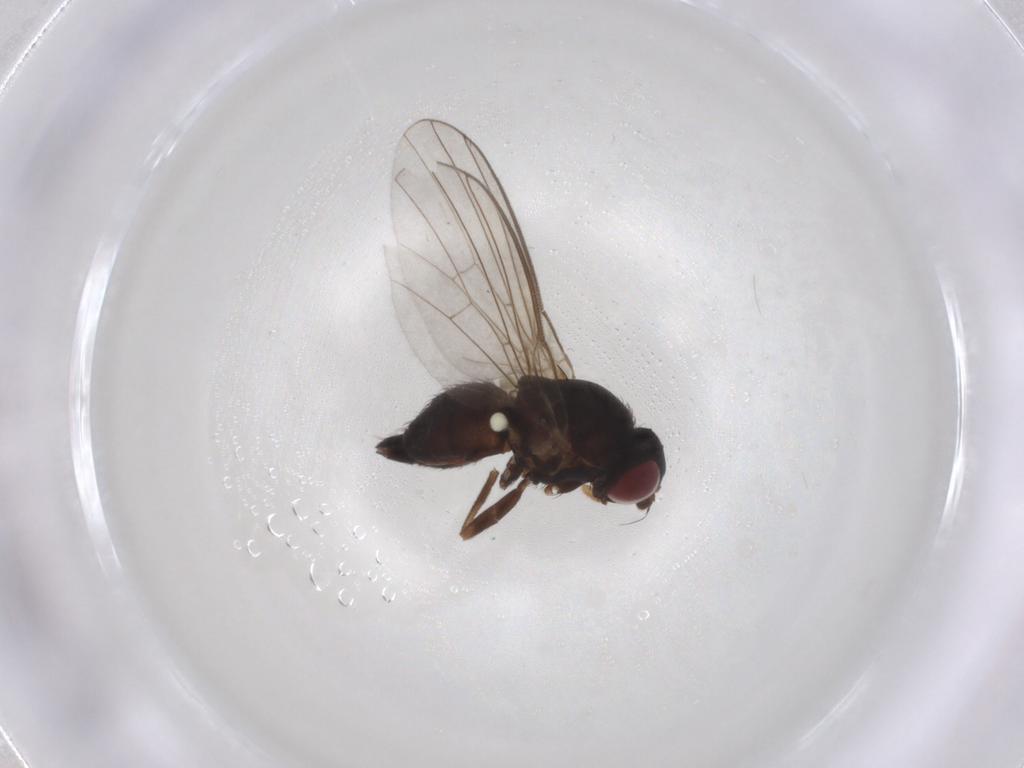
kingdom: Animalia
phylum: Arthropoda
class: Insecta
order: Diptera
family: Agromyzidae
